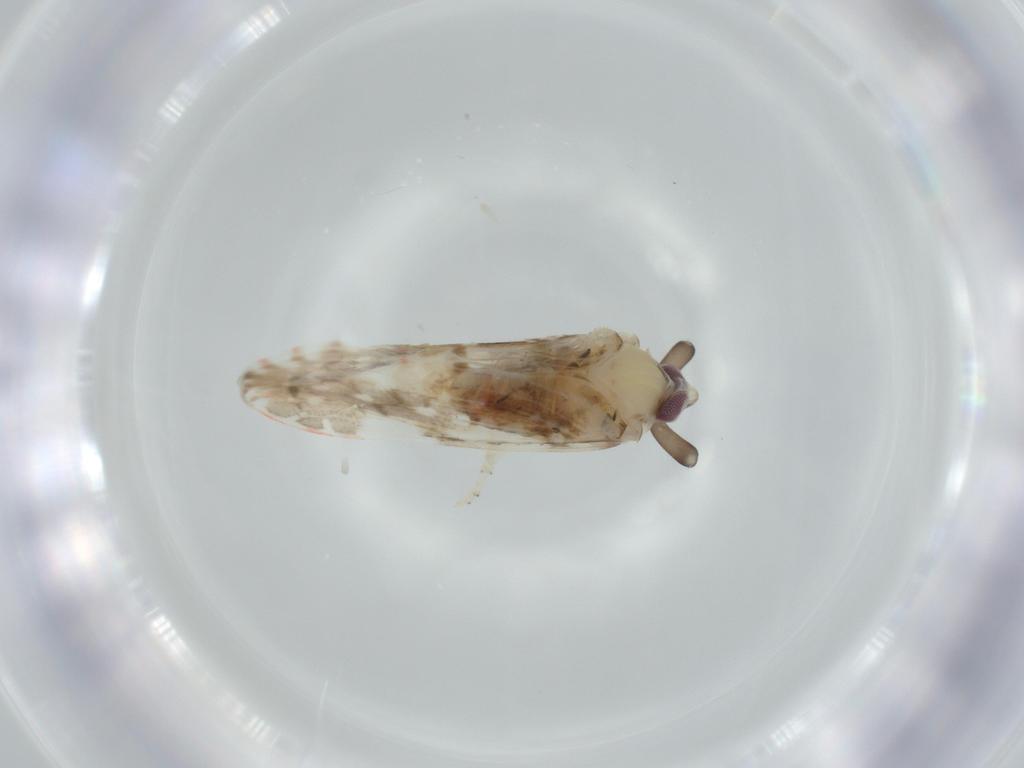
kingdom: Animalia
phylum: Arthropoda
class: Insecta
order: Hemiptera
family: Derbidae
